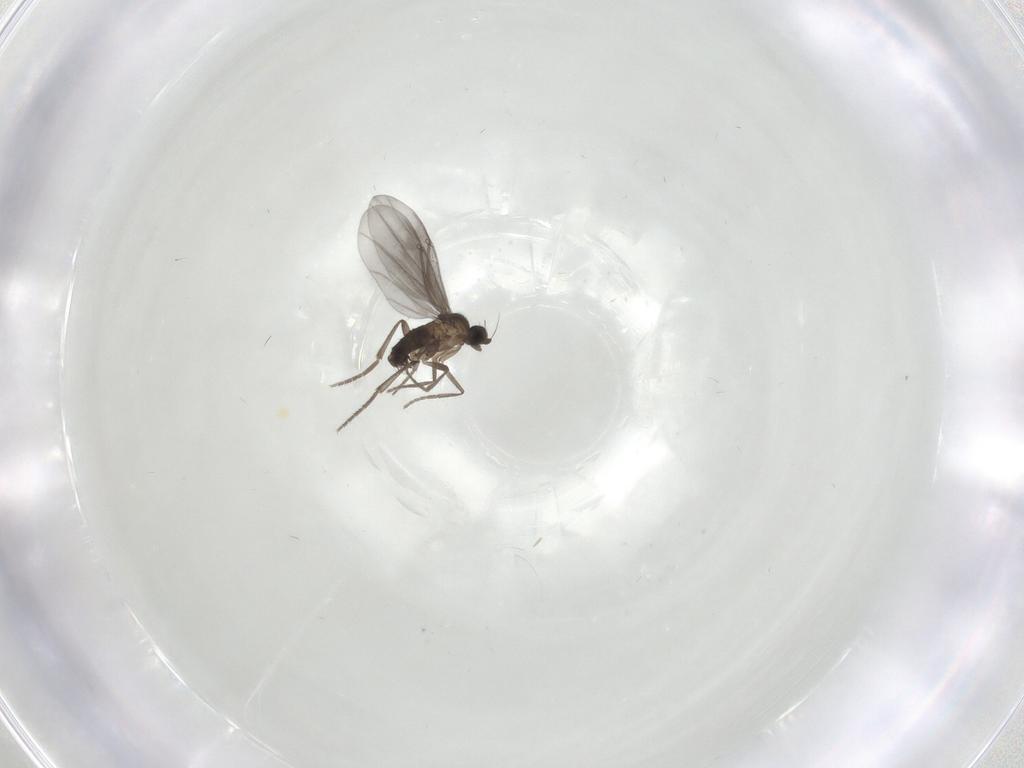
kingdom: Animalia
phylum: Arthropoda
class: Insecta
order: Diptera
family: Phoridae
